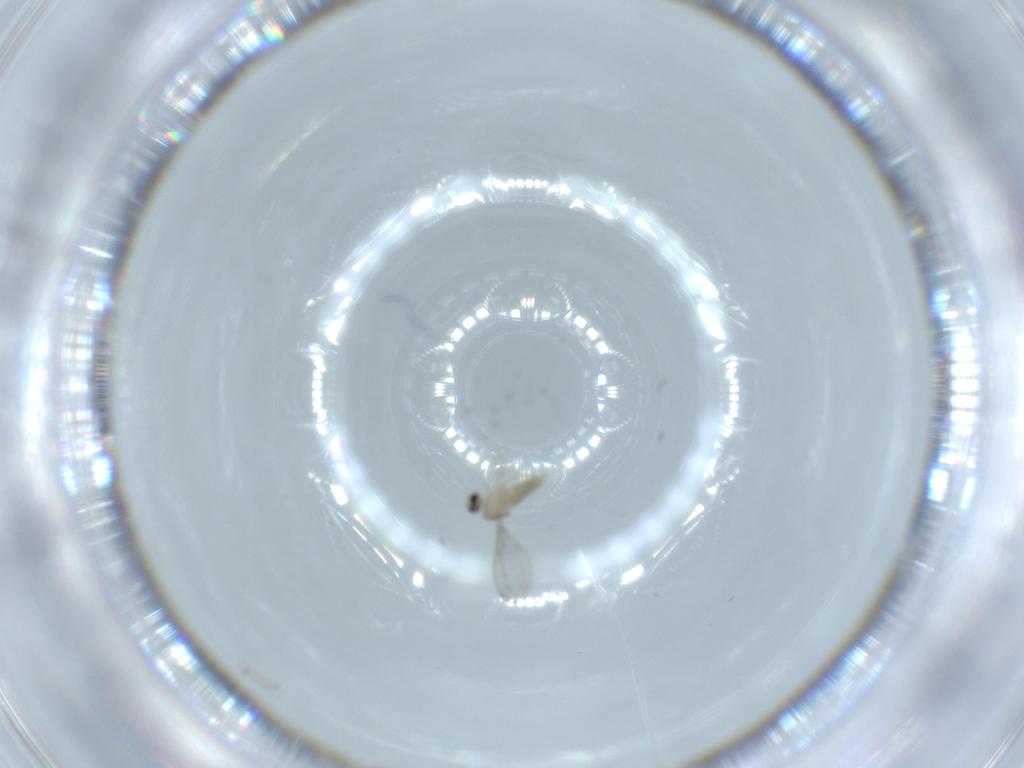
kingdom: Animalia
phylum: Arthropoda
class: Insecta
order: Diptera
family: Cecidomyiidae
